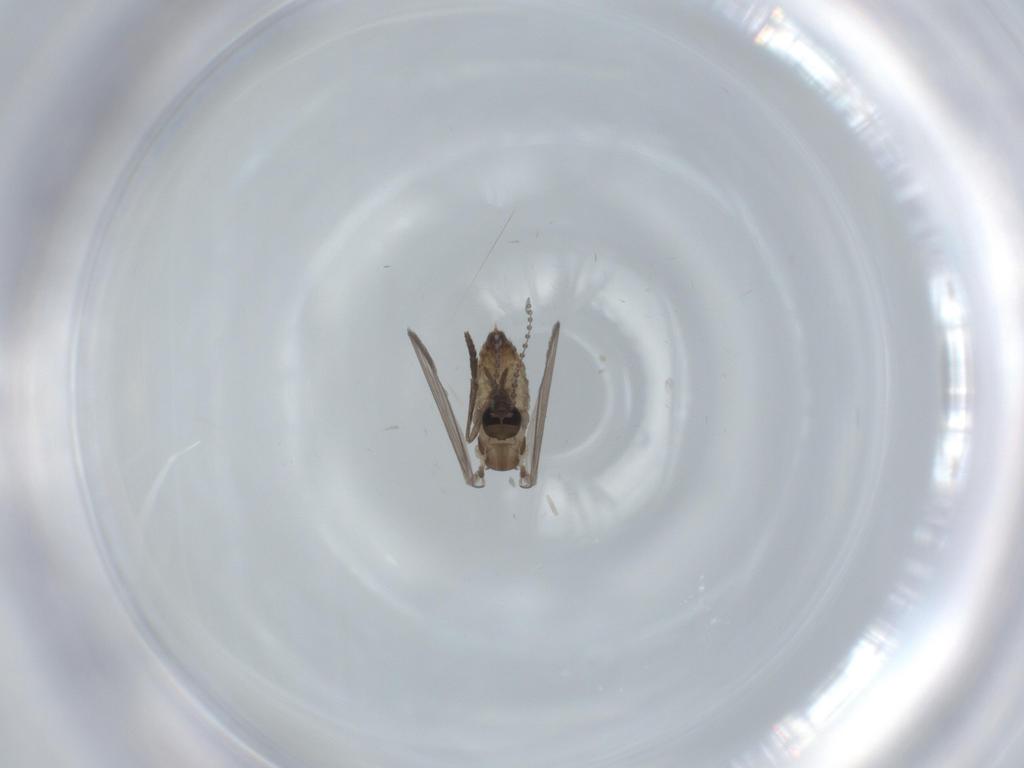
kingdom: Animalia
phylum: Arthropoda
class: Insecta
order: Diptera
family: Psychodidae
